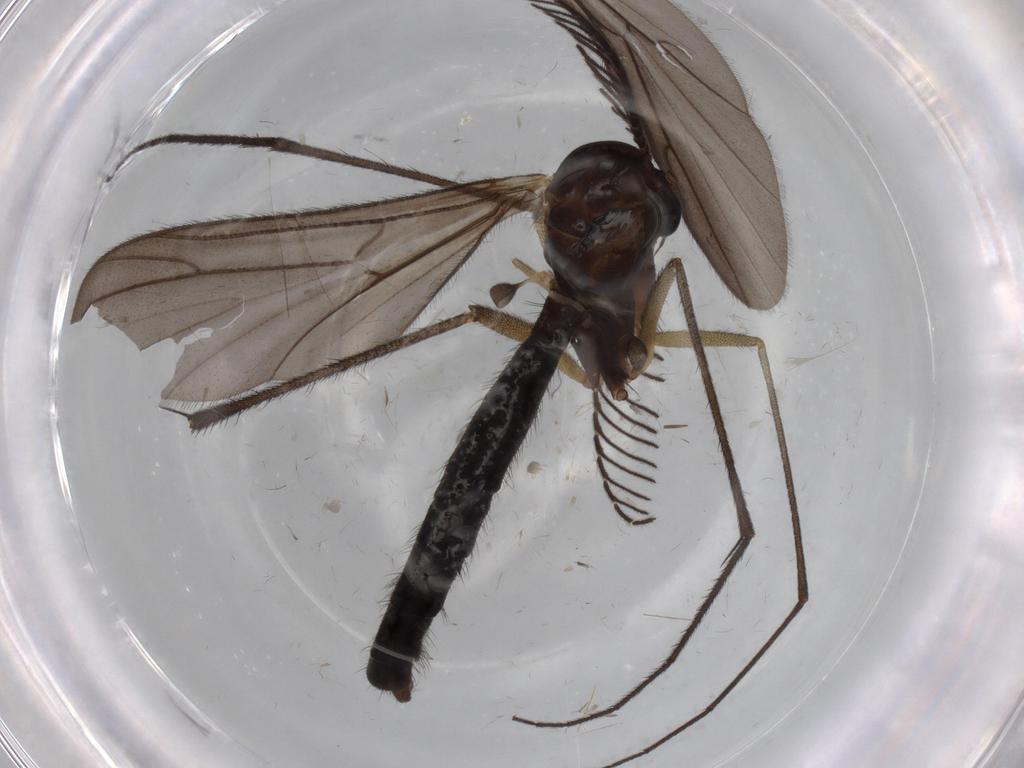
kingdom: Animalia
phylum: Arthropoda
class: Insecta
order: Diptera
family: Sciaridae
